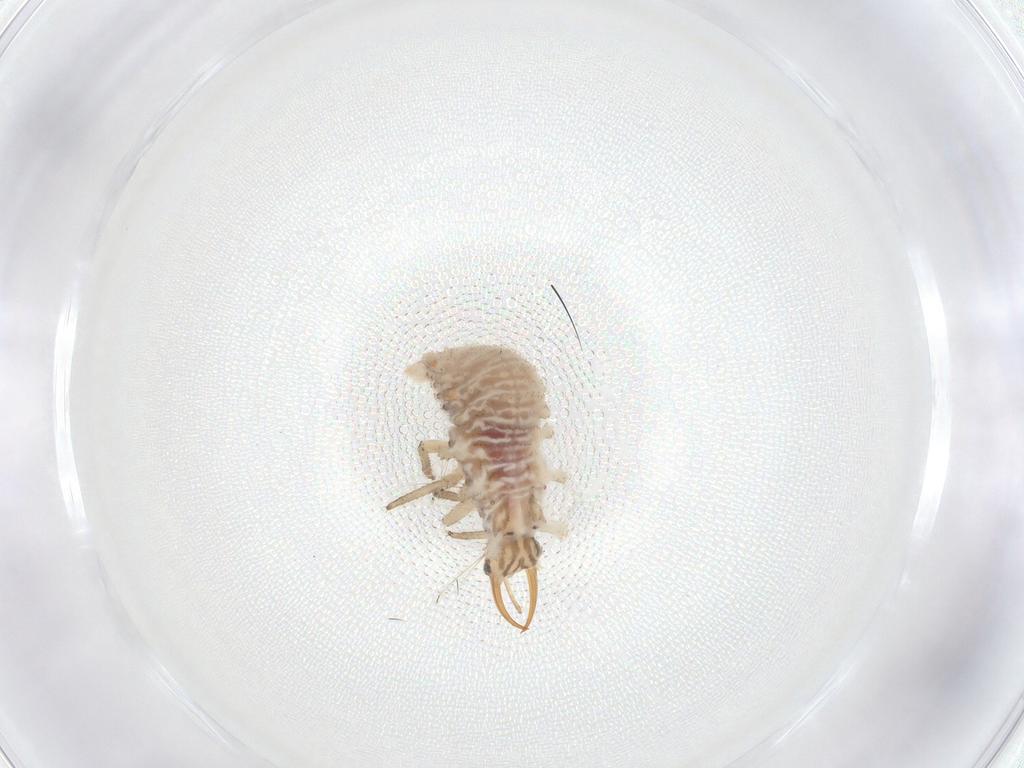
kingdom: Animalia
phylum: Arthropoda
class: Insecta
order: Neuroptera
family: Chrysopidae
